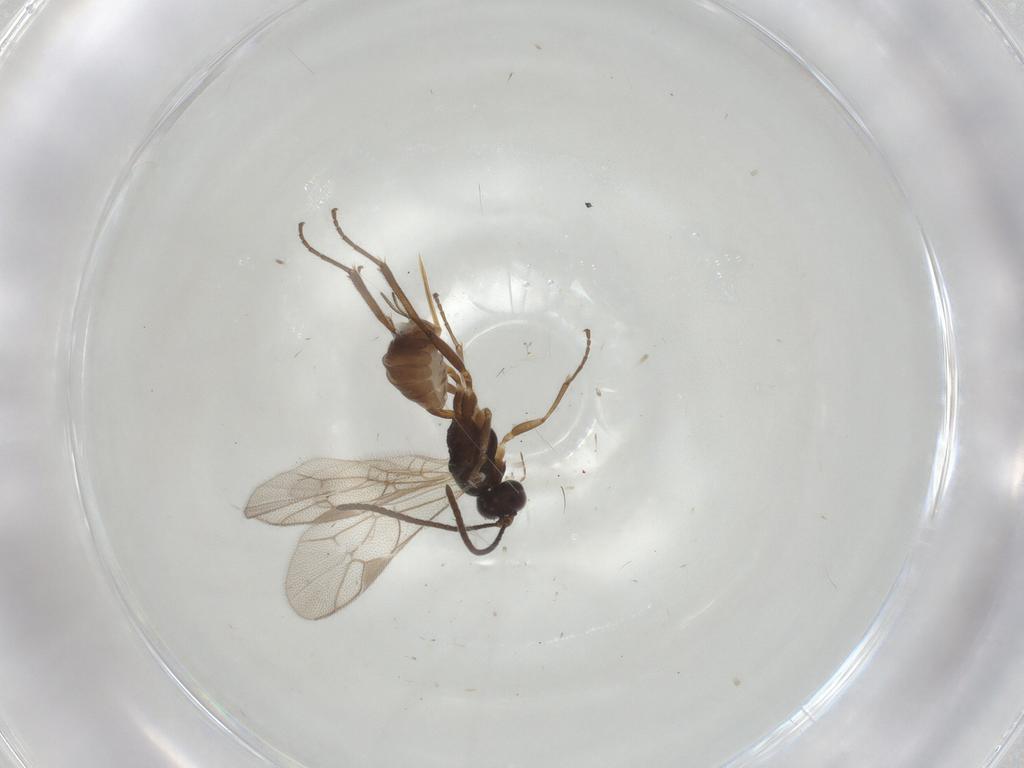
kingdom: Animalia
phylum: Arthropoda
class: Insecta
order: Hymenoptera
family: Ichneumonidae
